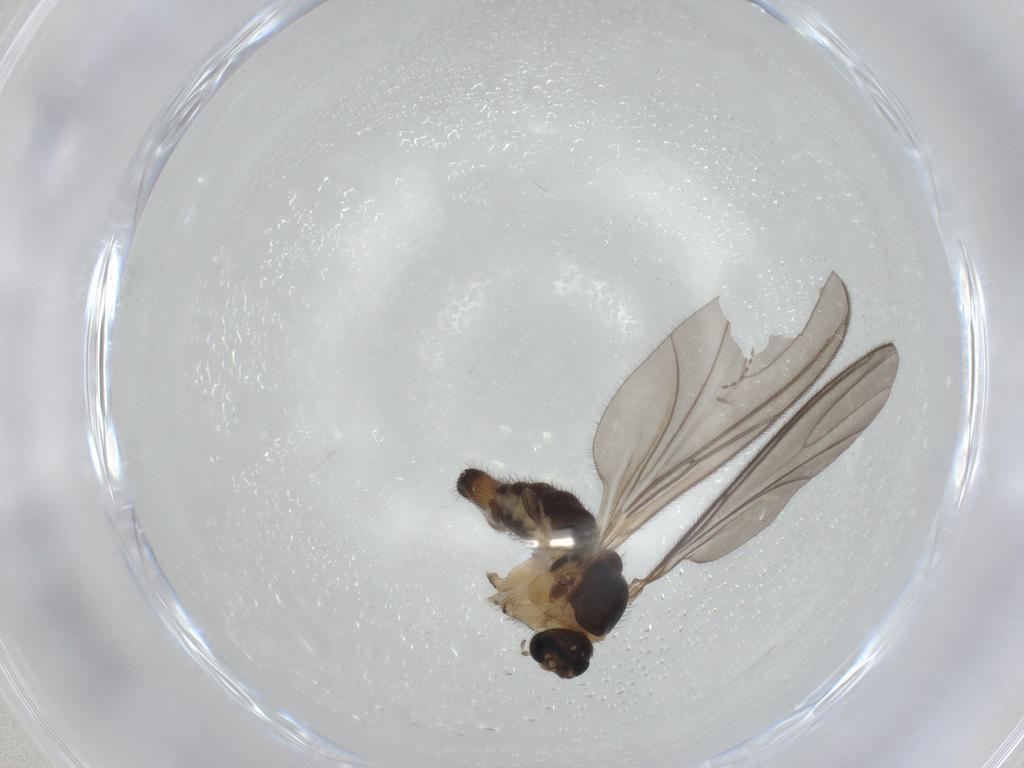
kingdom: Animalia
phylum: Arthropoda
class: Insecta
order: Diptera
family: Sciaridae
